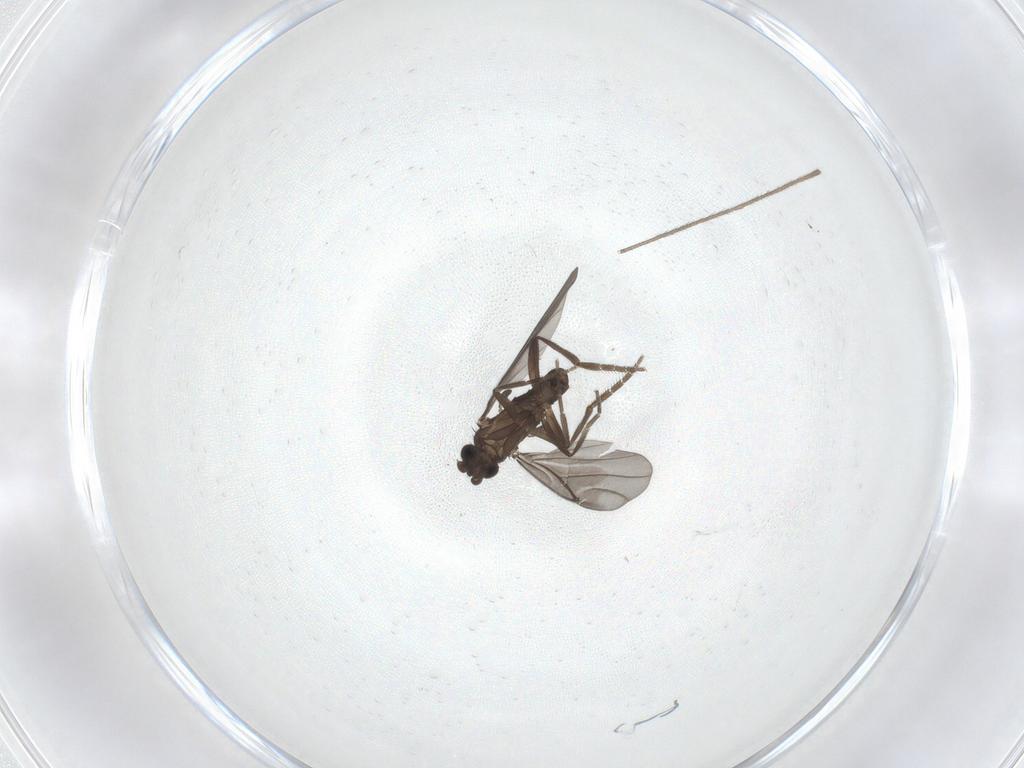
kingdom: Animalia
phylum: Arthropoda
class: Insecta
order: Diptera
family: Phoridae
